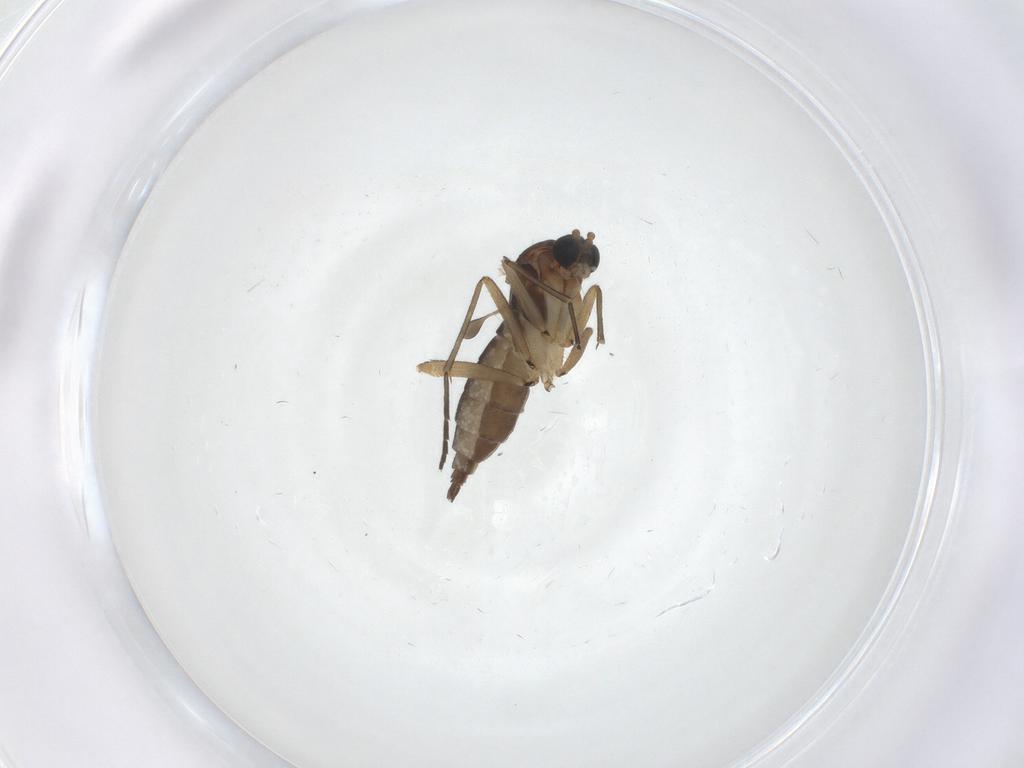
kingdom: Animalia
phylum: Arthropoda
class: Insecta
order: Diptera
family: Sciaridae
